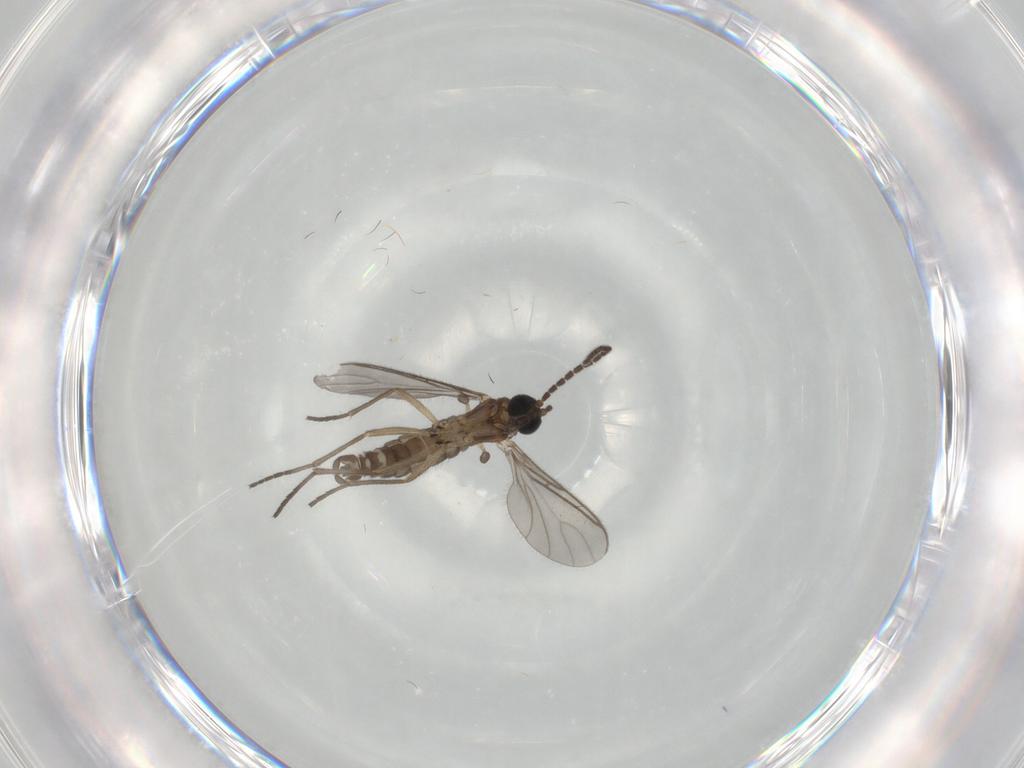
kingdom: Animalia
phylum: Arthropoda
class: Insecta
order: Diptera
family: Sciaridae
